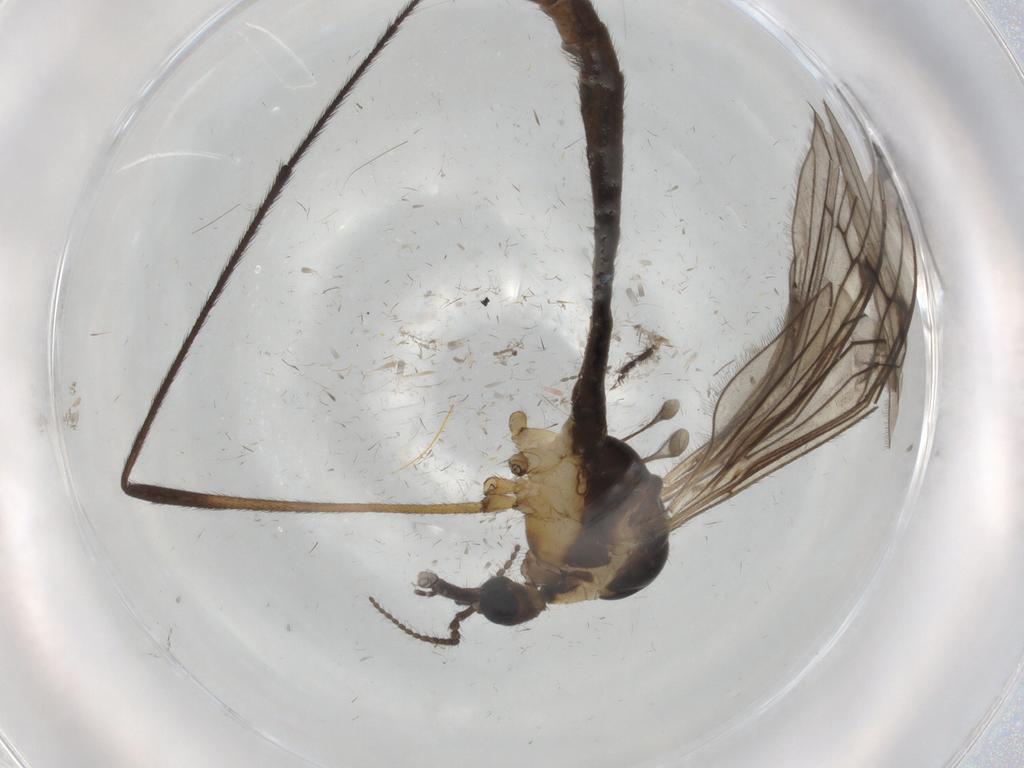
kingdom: Animalia
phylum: Arthropoda
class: Insecta
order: Diptera
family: Limoniidae
